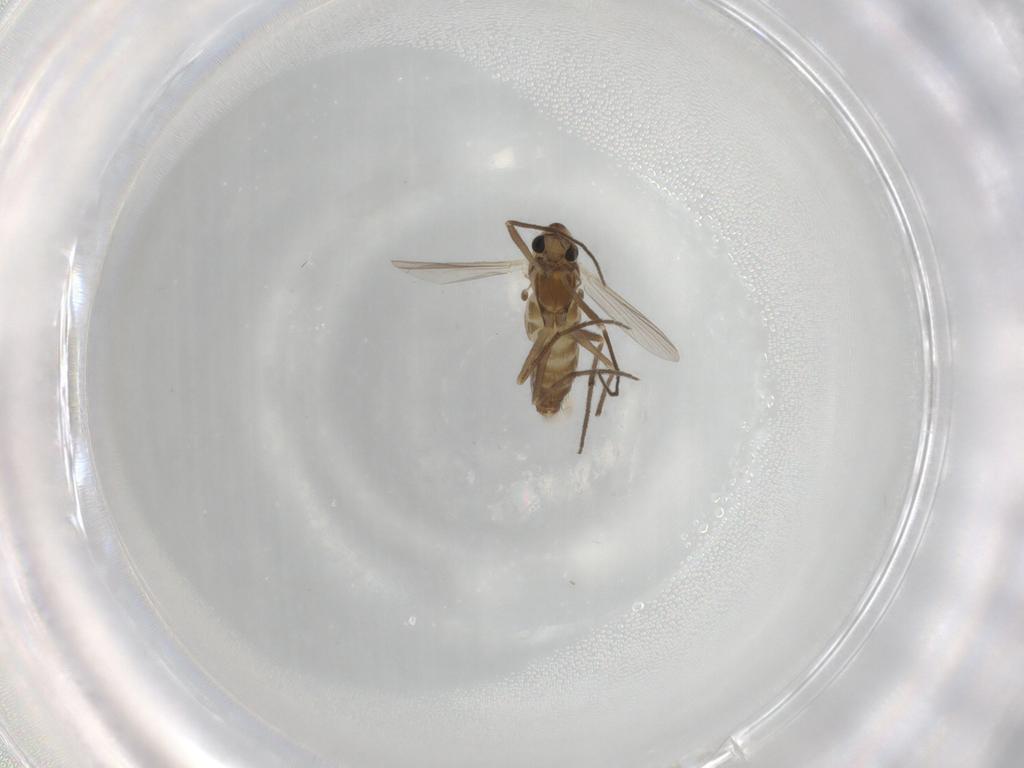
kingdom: Animalia
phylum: Arthropoda
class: Insecta
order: Diptera
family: Chironomidae
